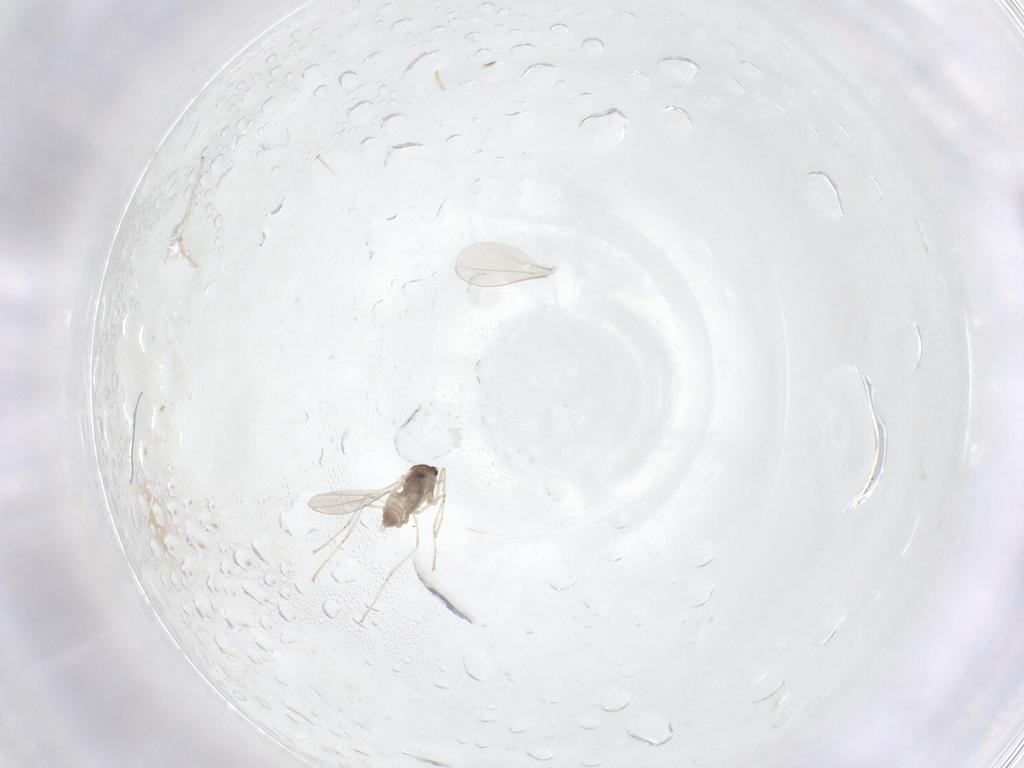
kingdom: Animalia
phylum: Arthropoda
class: Insecta
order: Diptera
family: Cecidomyiidae
